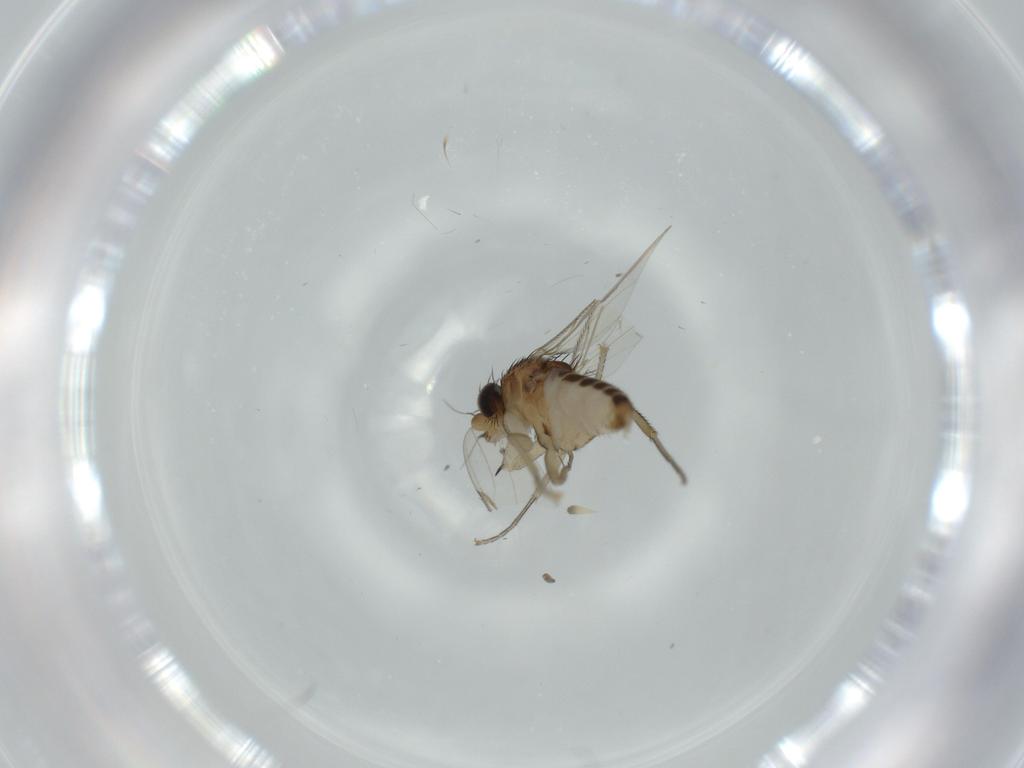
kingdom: Animalia
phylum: Arthropoda
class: Insecta
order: Diptera
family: Phoridae
